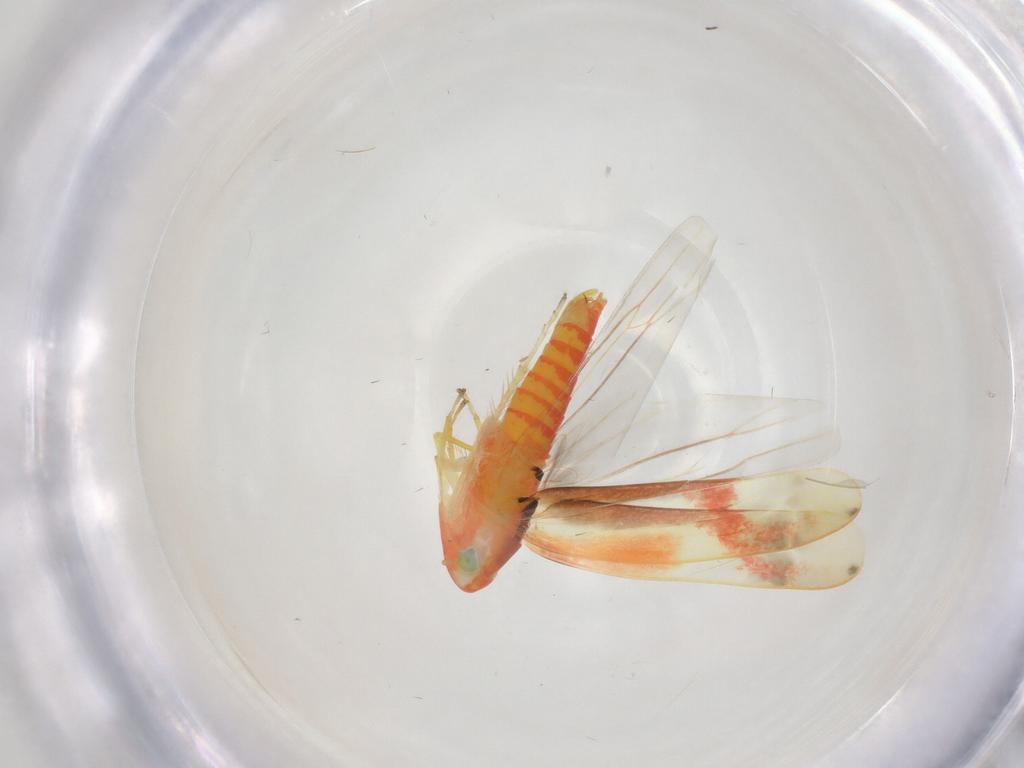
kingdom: Animalia
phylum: Arthropoda
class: Insecta
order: Hemiptera
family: Cicadellidae
